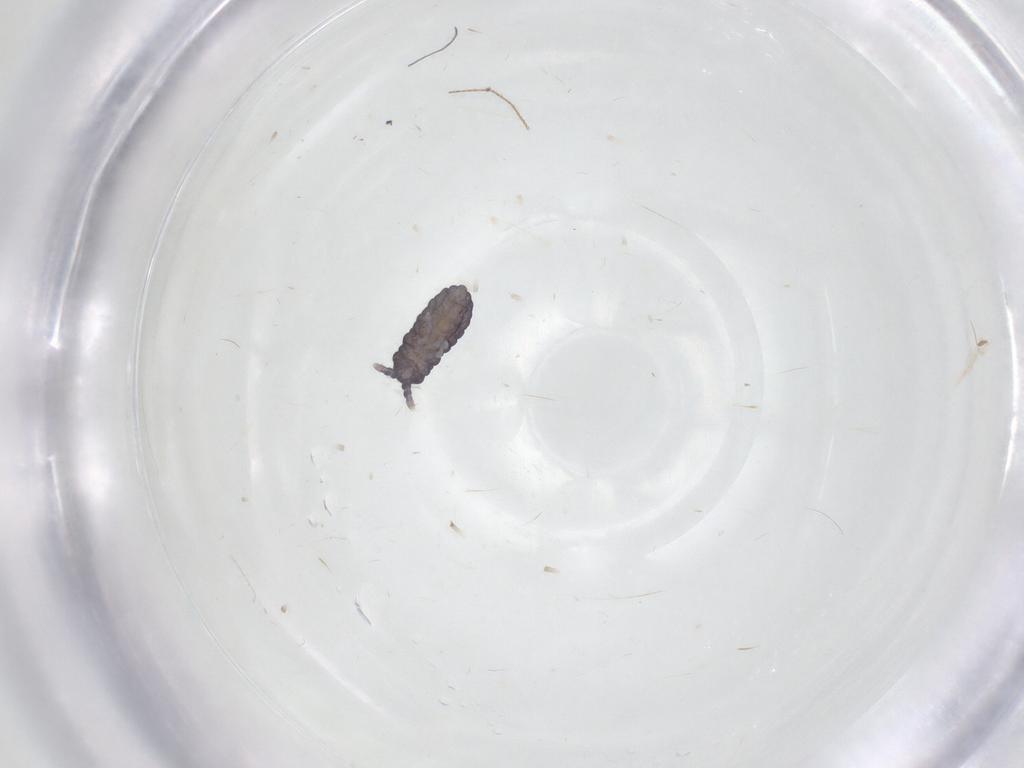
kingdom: Animalia
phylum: Arthropoda
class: Collembola
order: Poduromorpha
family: Neanuridae
